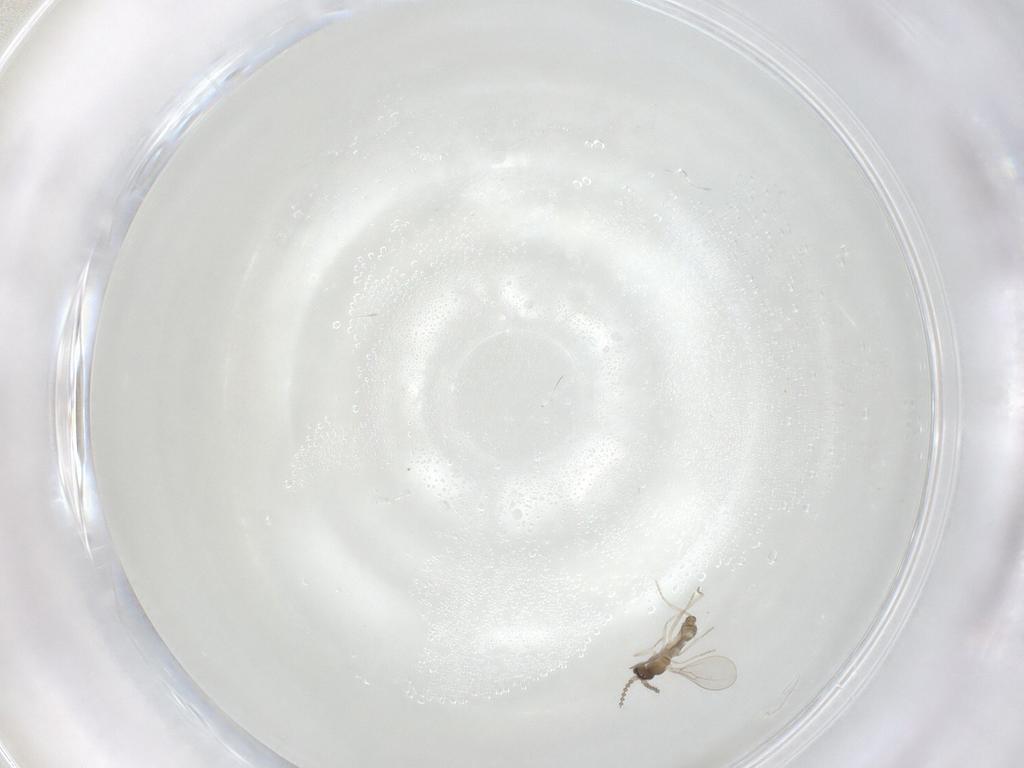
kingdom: Animalia
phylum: Arthropoda
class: Insecta
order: Diptera
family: Cecidomyiidae
